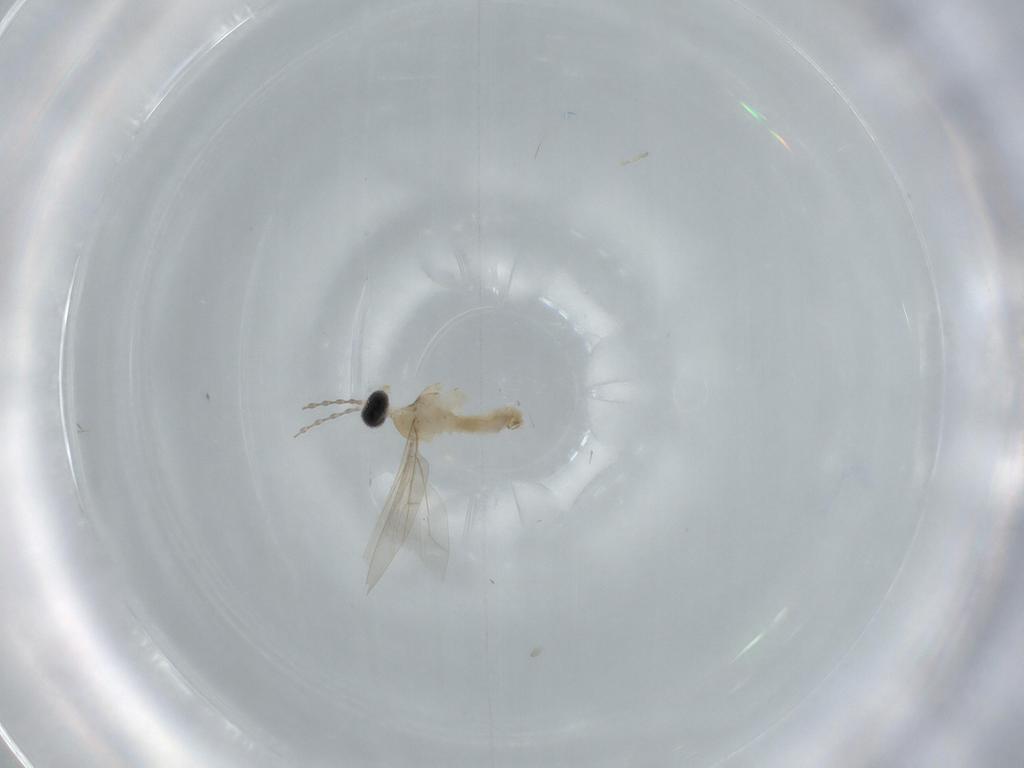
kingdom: Animalia
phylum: Arthropoda
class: Insecta
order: Diptera
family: Cecidomyiidae
